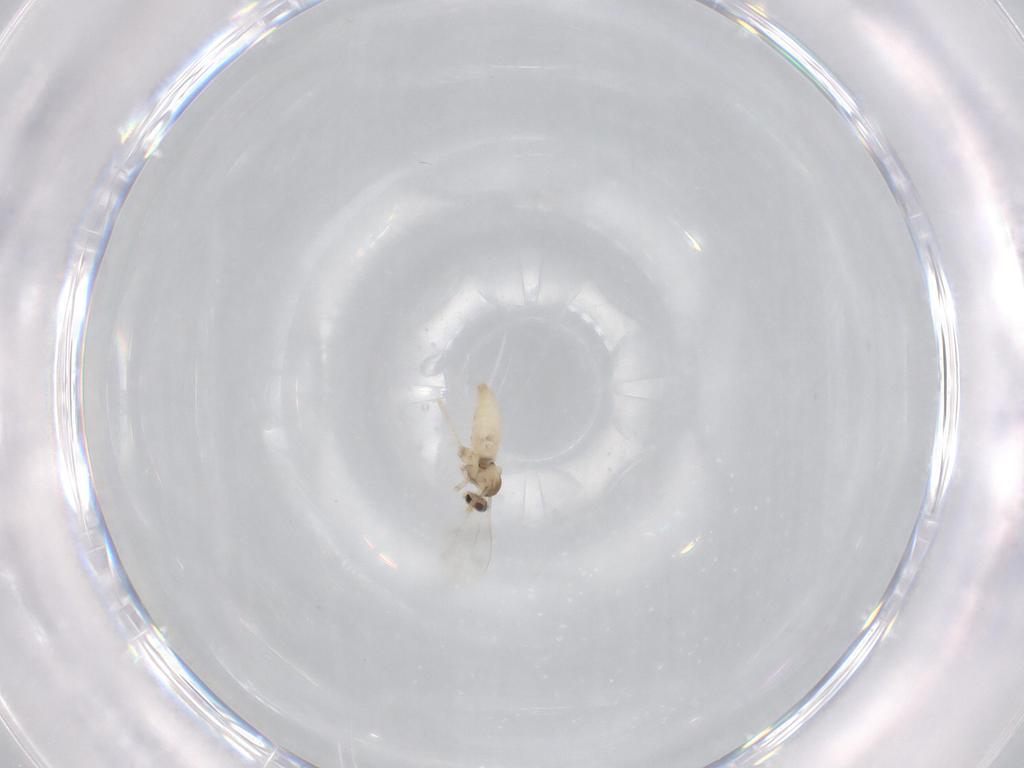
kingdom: Animalia
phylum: Arthropoda
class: Insecta
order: Diptera
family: Cecidomyiidae
